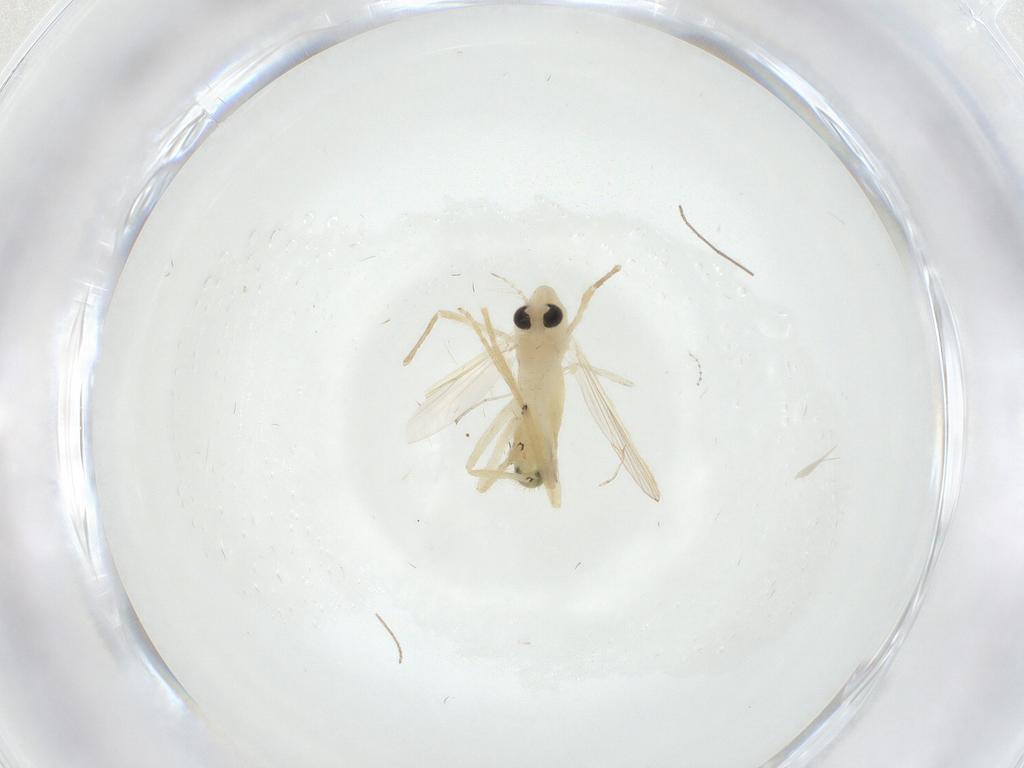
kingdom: Animalia
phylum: Arthropoda
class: Insecta
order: Diptera
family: Chironomidae
